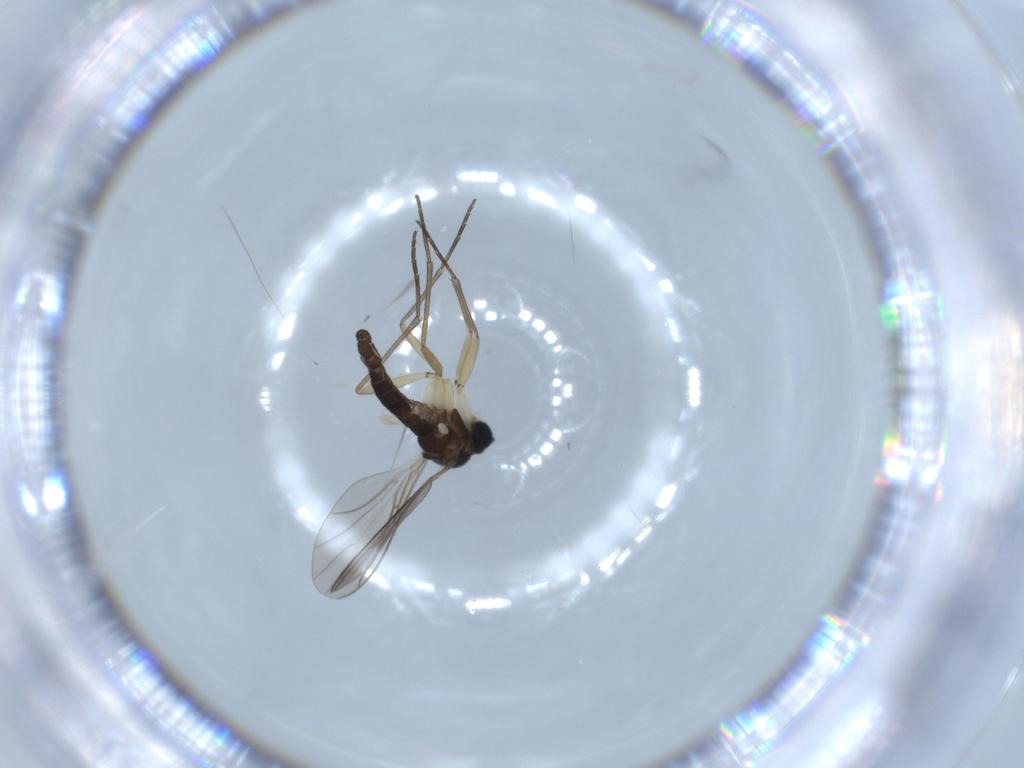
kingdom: Animalia
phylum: Arthropoda
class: Insecta
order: Diptera
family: Sciaridae
